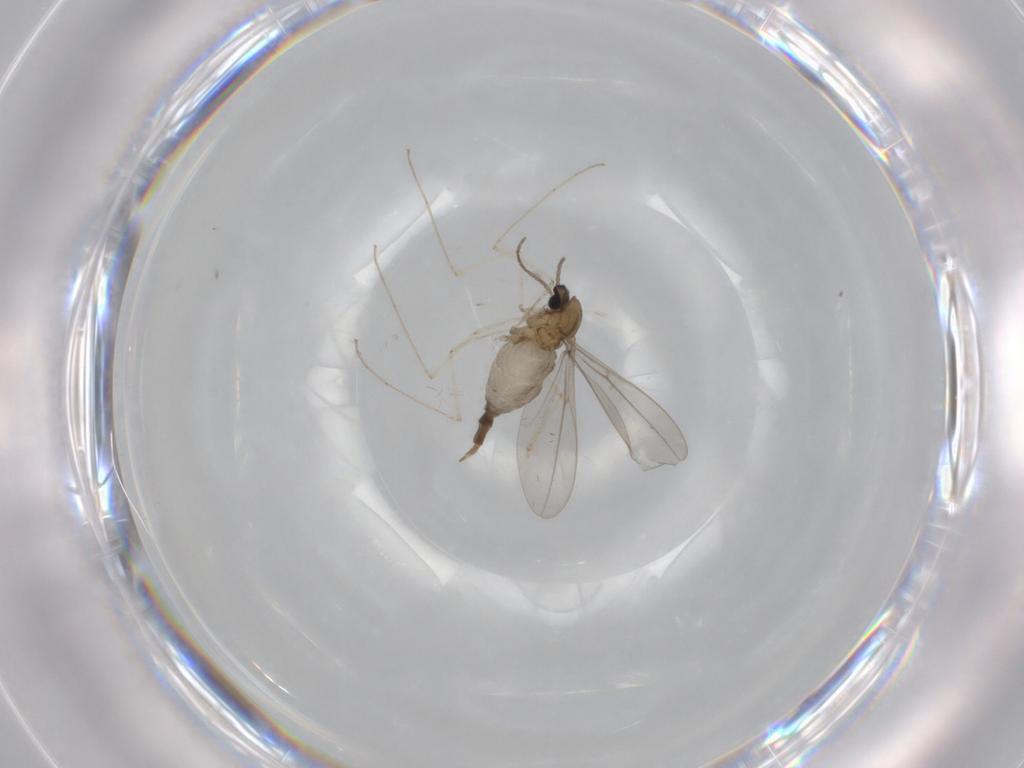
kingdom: Animalia
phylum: Arthropoda
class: Insecta
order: Diptera
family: Cecidomyiidae
